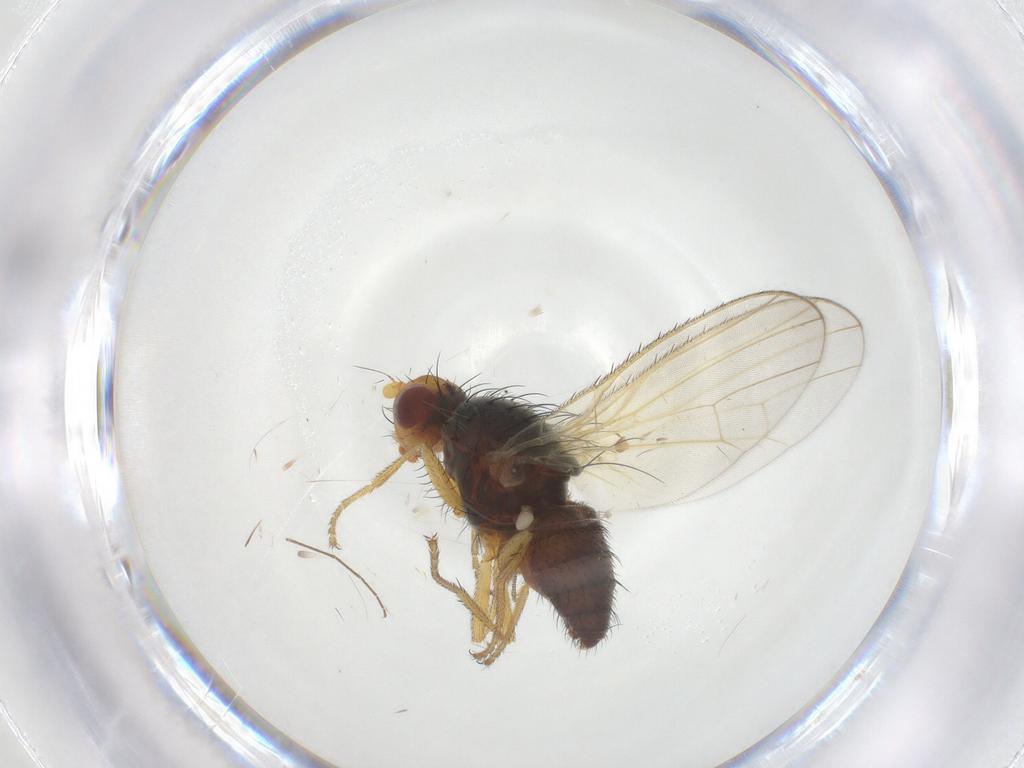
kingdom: Animalia
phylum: Arthropoda
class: Insecta
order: Diptera
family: Heleomyzidae
